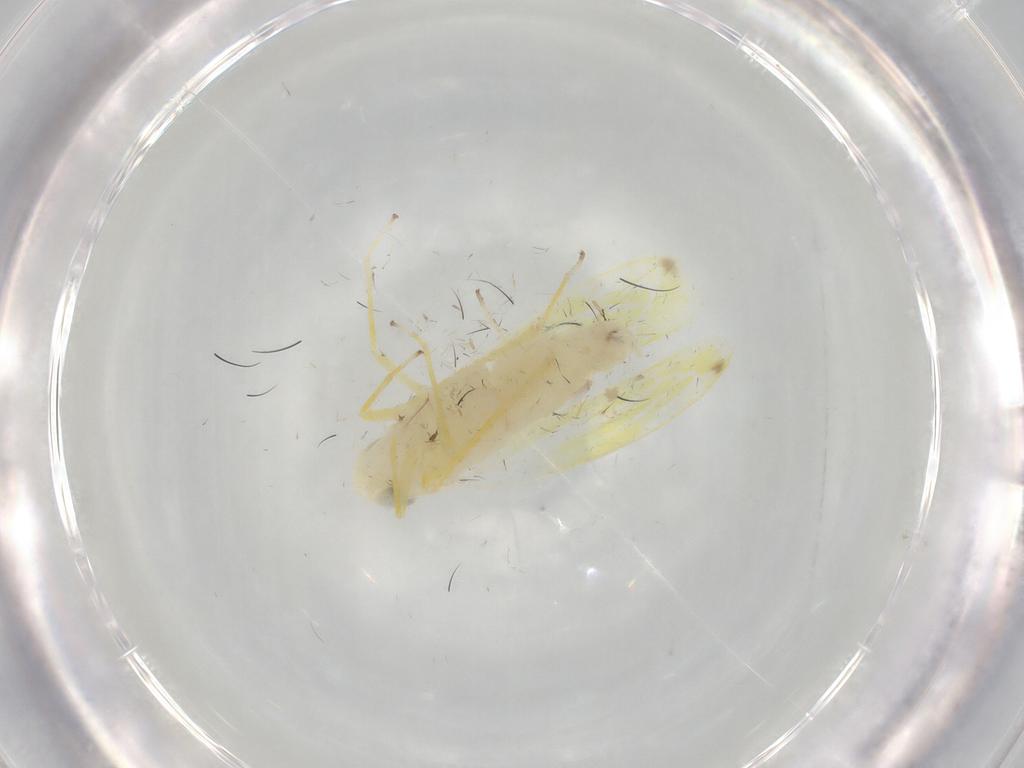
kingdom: Animalia
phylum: Arthropoda
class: Insecta
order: Hemiptera
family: Cicadellidae
